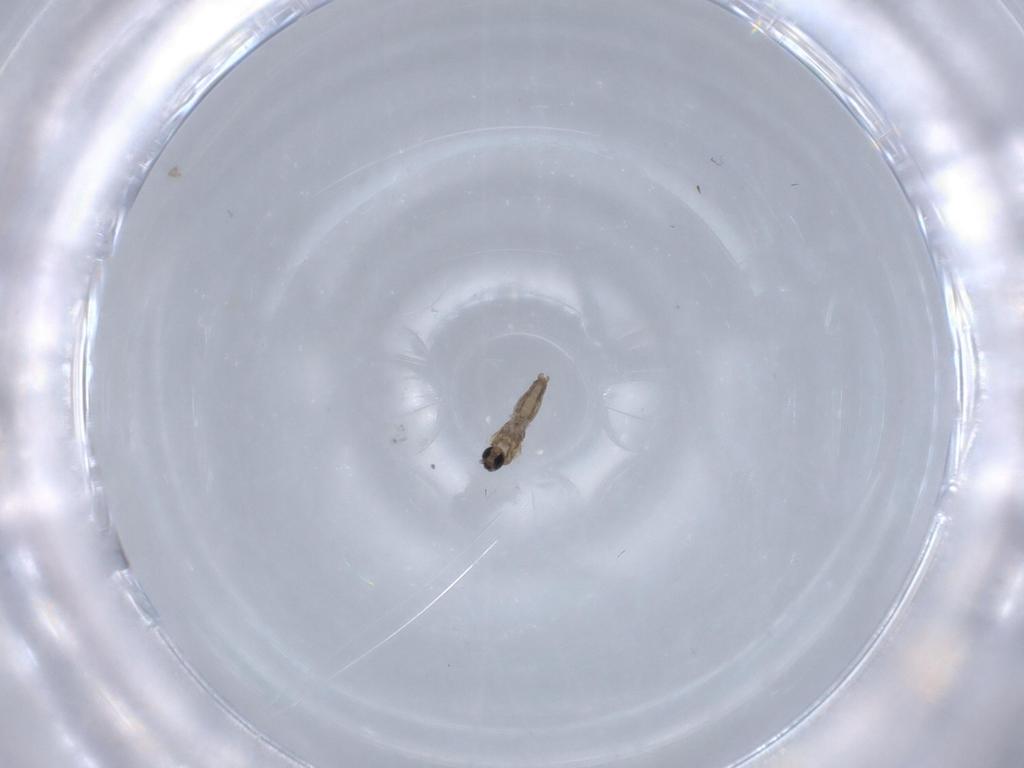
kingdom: Animalia
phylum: Arthropoda
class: Insecta
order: Diptera
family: Cecidomyiidae
